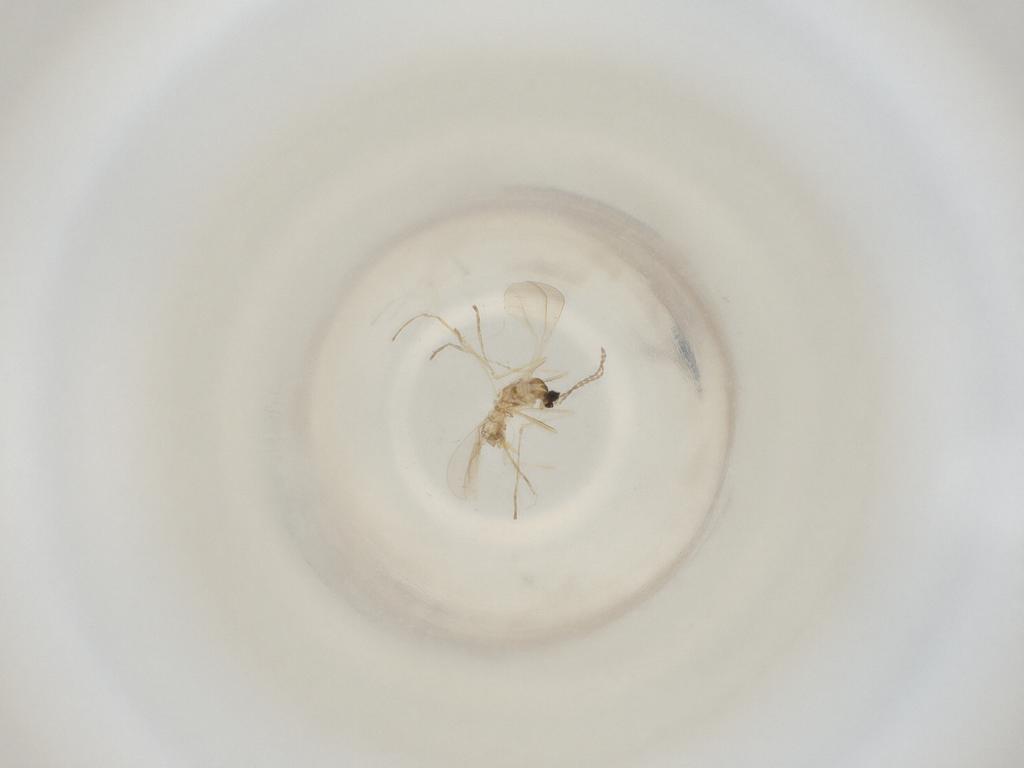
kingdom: Animalia
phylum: Arthropoda
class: Insecta
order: Diptera
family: Cecidomyiidae
